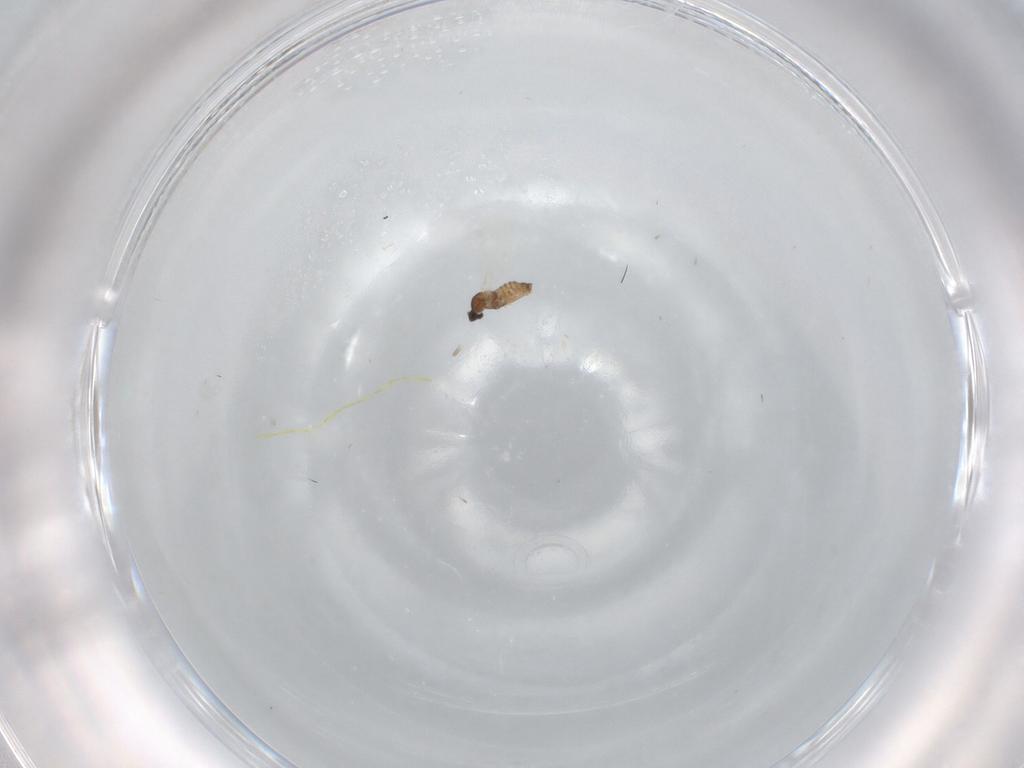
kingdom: Animalia
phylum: Arthropoda
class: Insecta
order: Diptera
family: Cecidomyiidae
